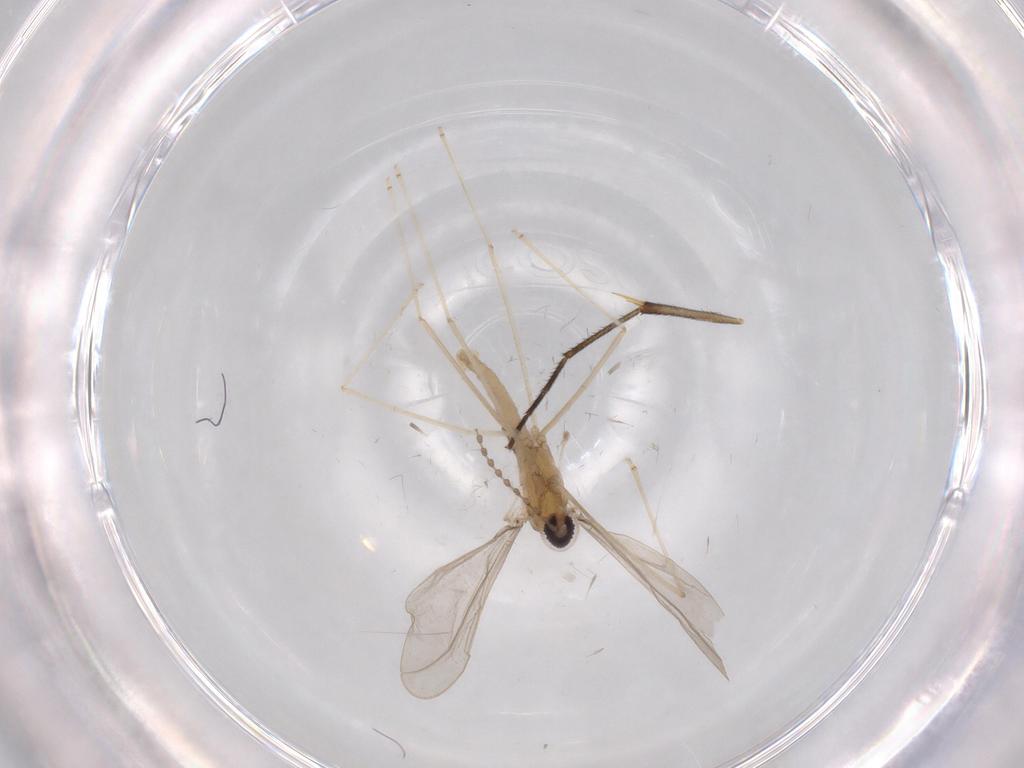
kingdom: Animalia
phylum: Arthropoda
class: Insecta
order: Diptera
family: Cecidomyiidae
